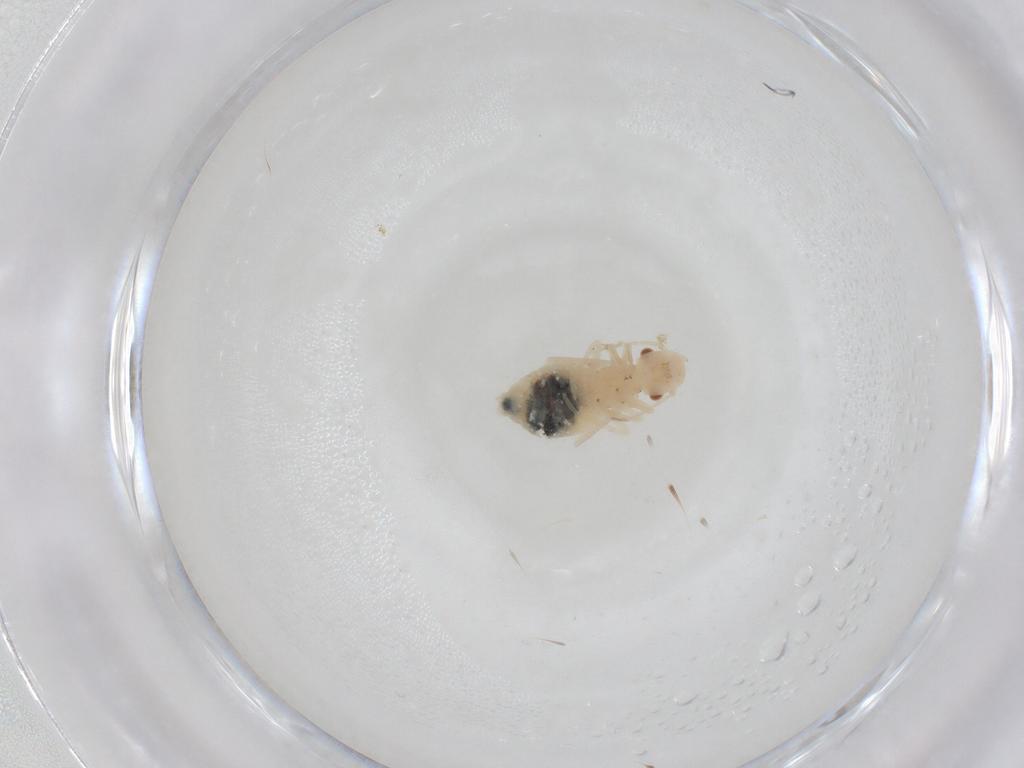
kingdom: Animalia
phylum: Arthropoda
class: Insecta
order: Psocodea
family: Caeciliusidae
